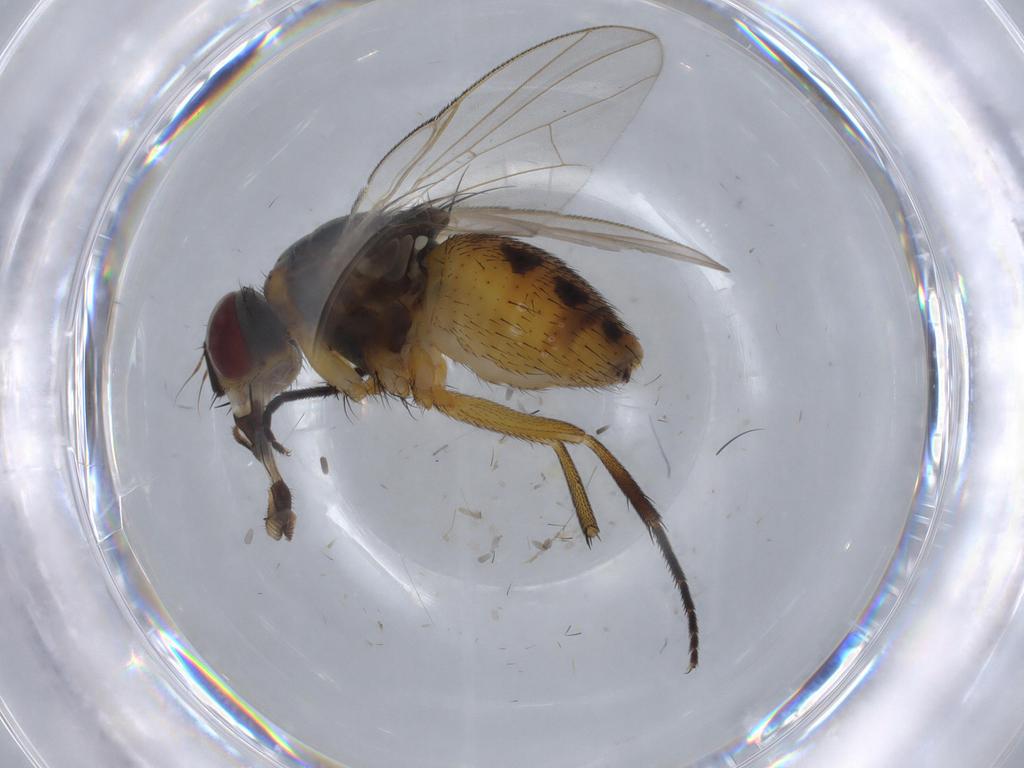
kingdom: Animalia
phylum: Arthropoda
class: Insecta
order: Diptera
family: Muscidae
